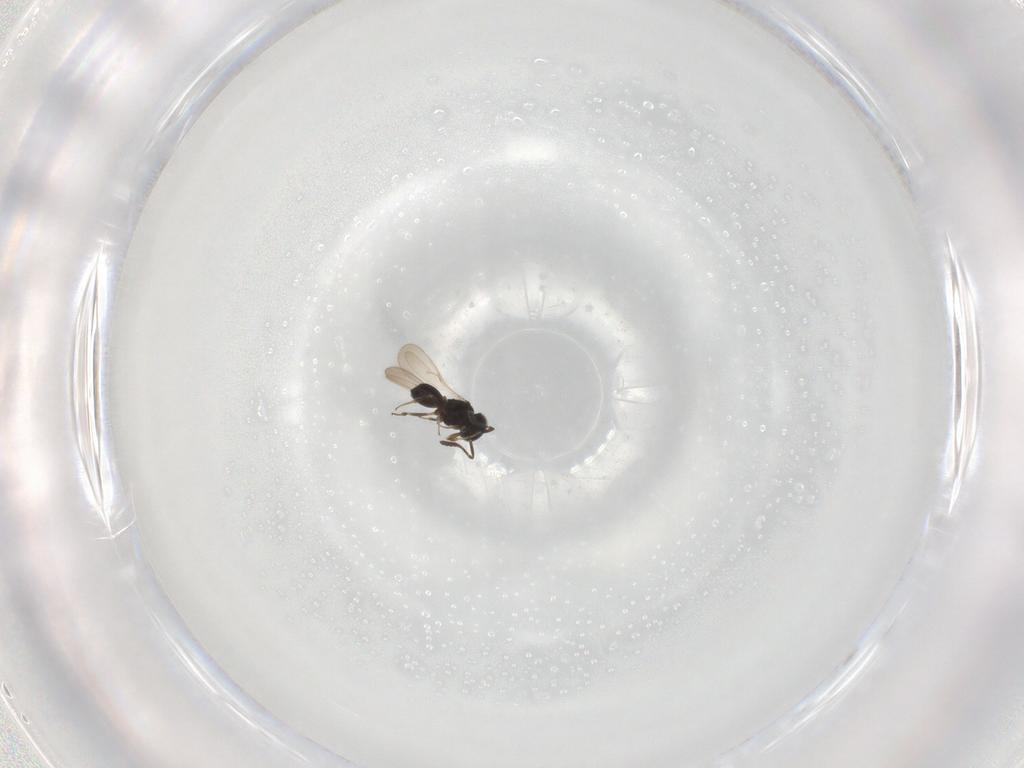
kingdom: Animalia
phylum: Arthropoda
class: Insecta
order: Hymenoptera
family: Scelionidae
